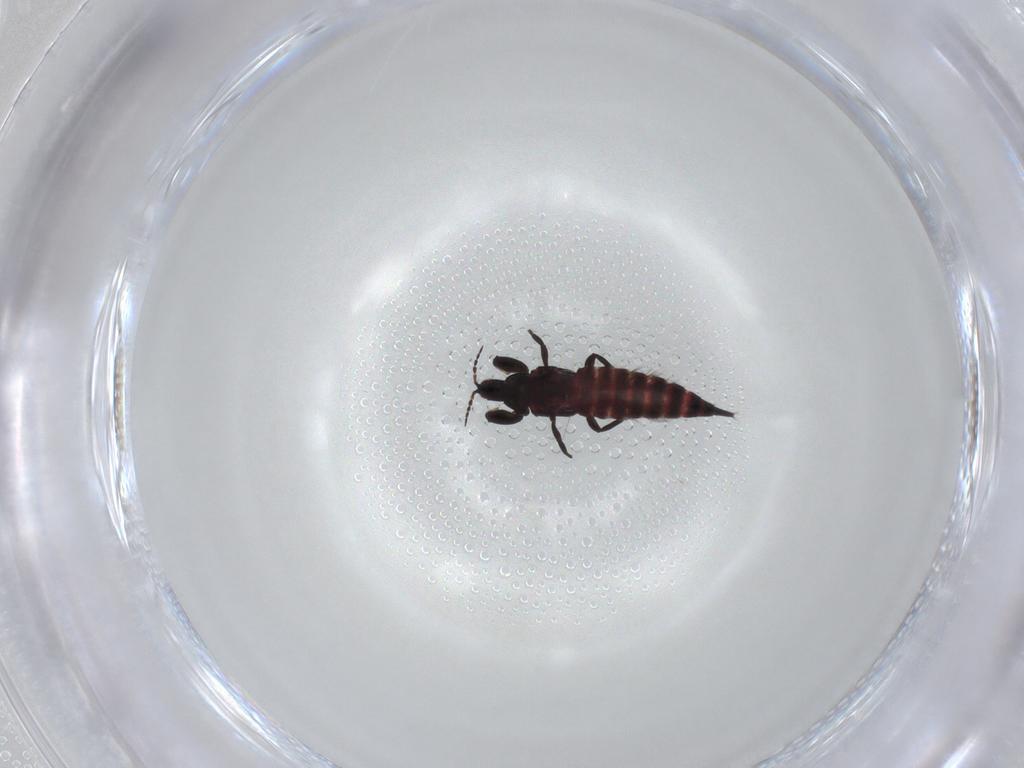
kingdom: Animalia
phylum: Arthropoda
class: Insecta
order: Thysanoptera
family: Phlaeothripidae
